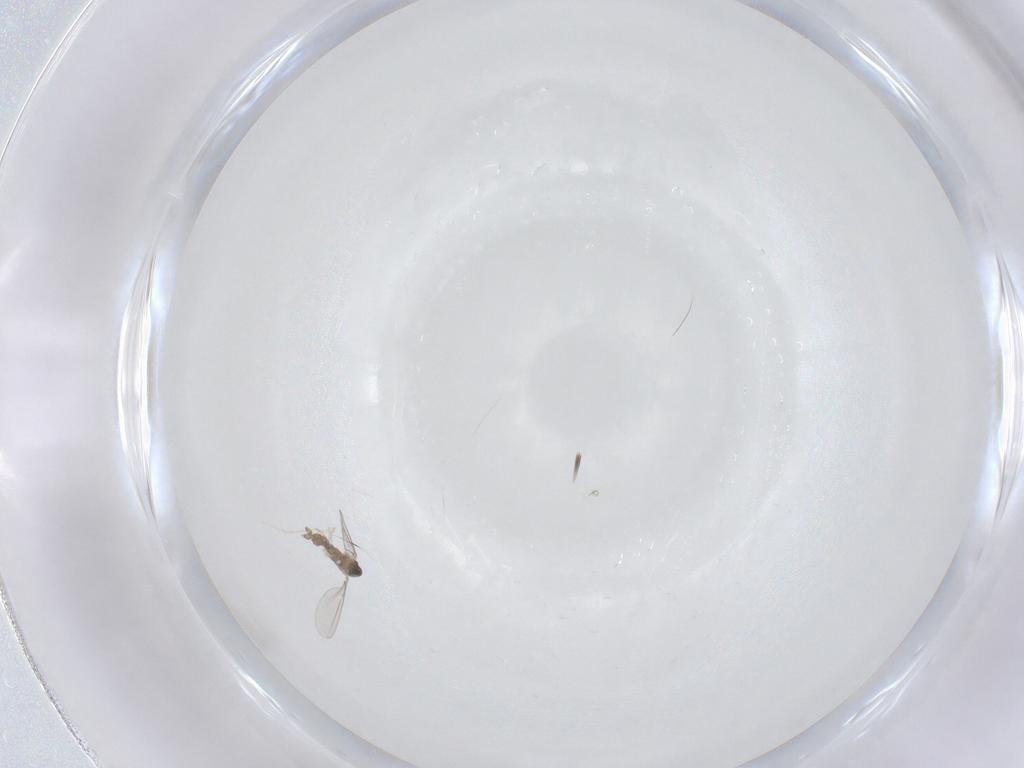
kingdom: Animalia
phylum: Arthropoda
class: Insecta
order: Diptera
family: Cecidomyiidae
